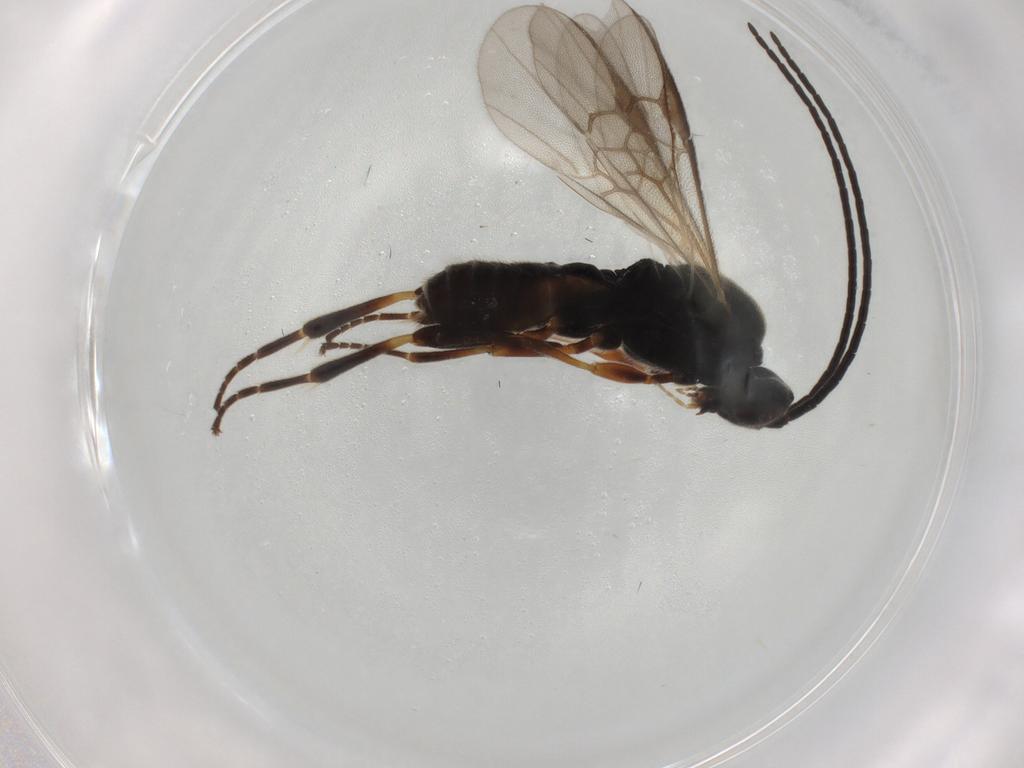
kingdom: Animalia
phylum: Arthropoda
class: Insecta
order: Hymenoptera
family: Braconidae
